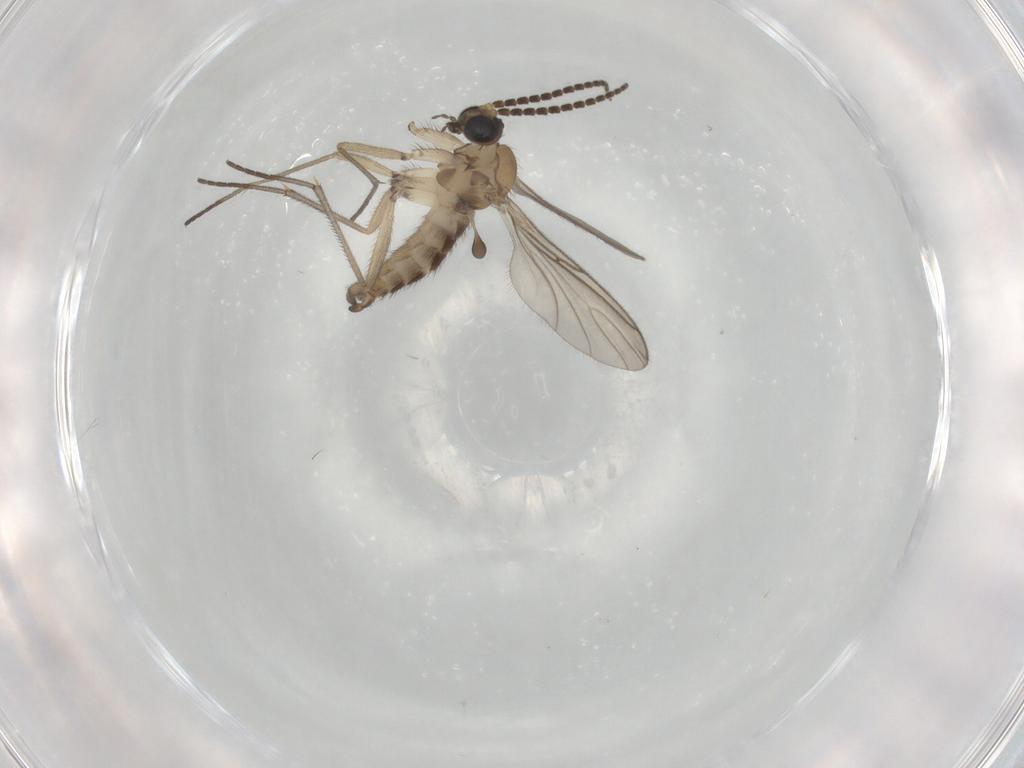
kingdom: Animalia
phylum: Arthropoda
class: Insecta
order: Diptera
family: Sciaridae
